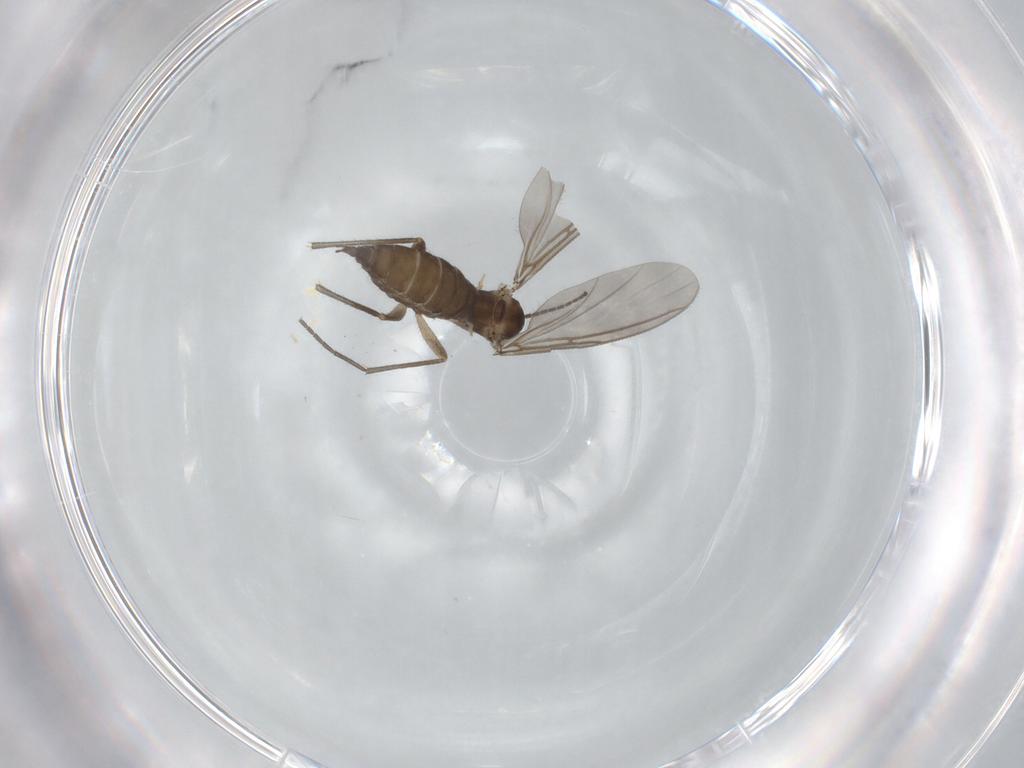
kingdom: Animalia
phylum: Arthropoda
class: Insecta
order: Diptera
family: Sciaridae
